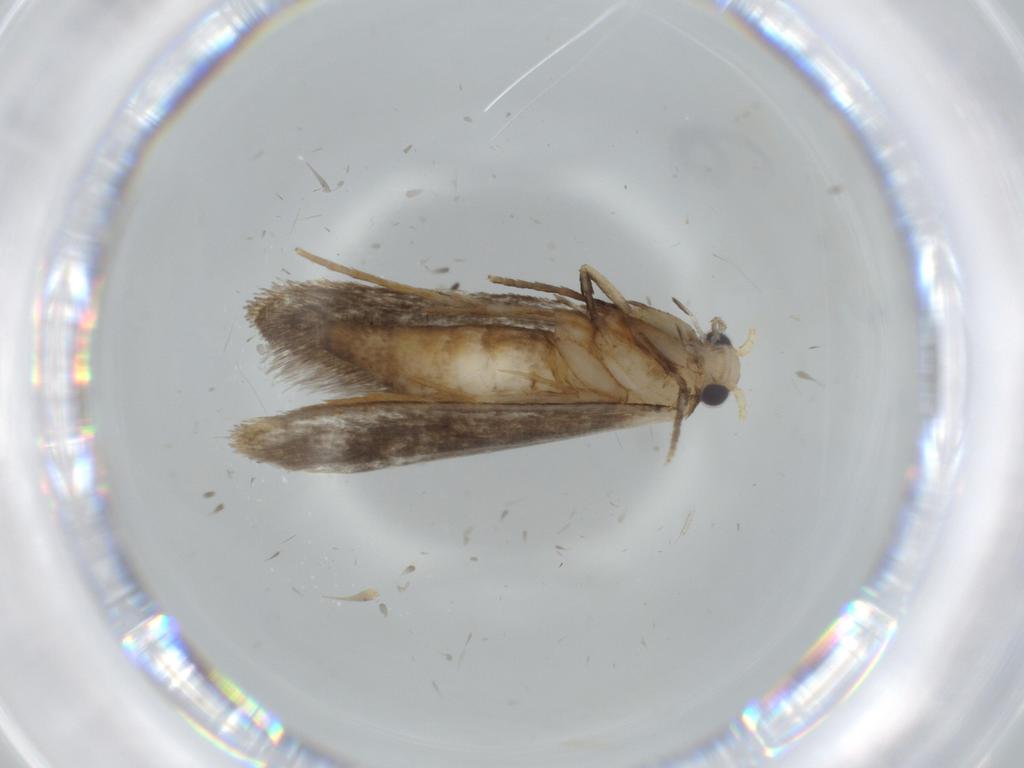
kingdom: Animalia
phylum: Arthropoda
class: Insecta
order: Lepidoptera
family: Tineidae
